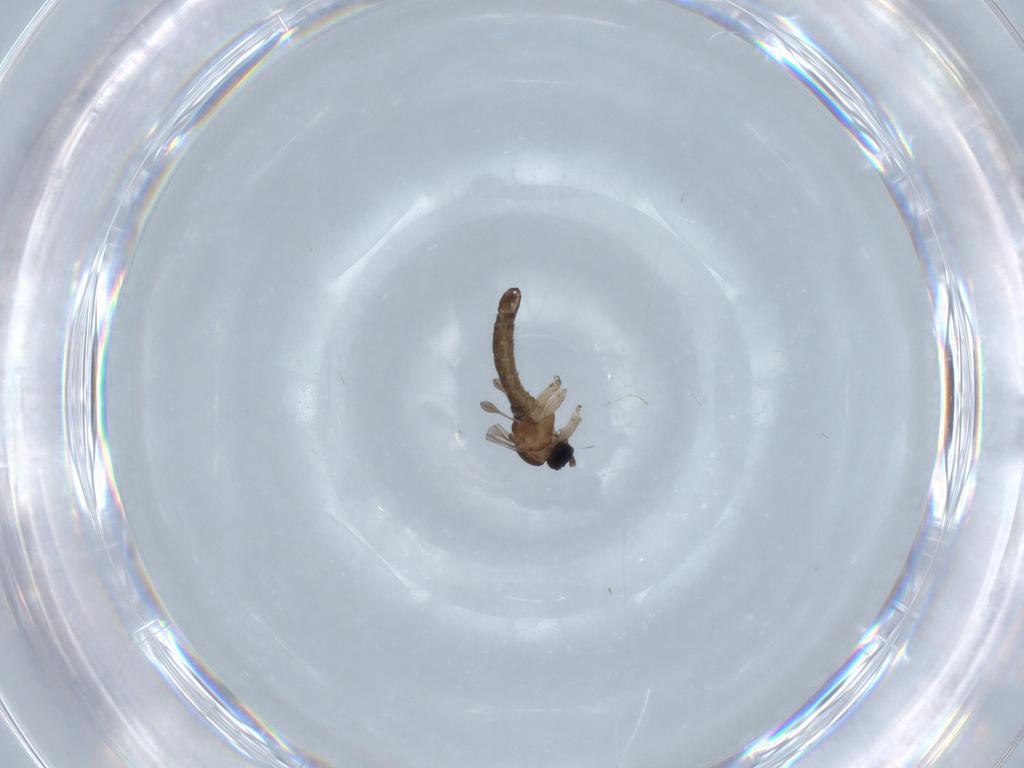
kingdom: Animalia
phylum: Arthropoda
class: Insecta
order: Diptera
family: Sciaridae
